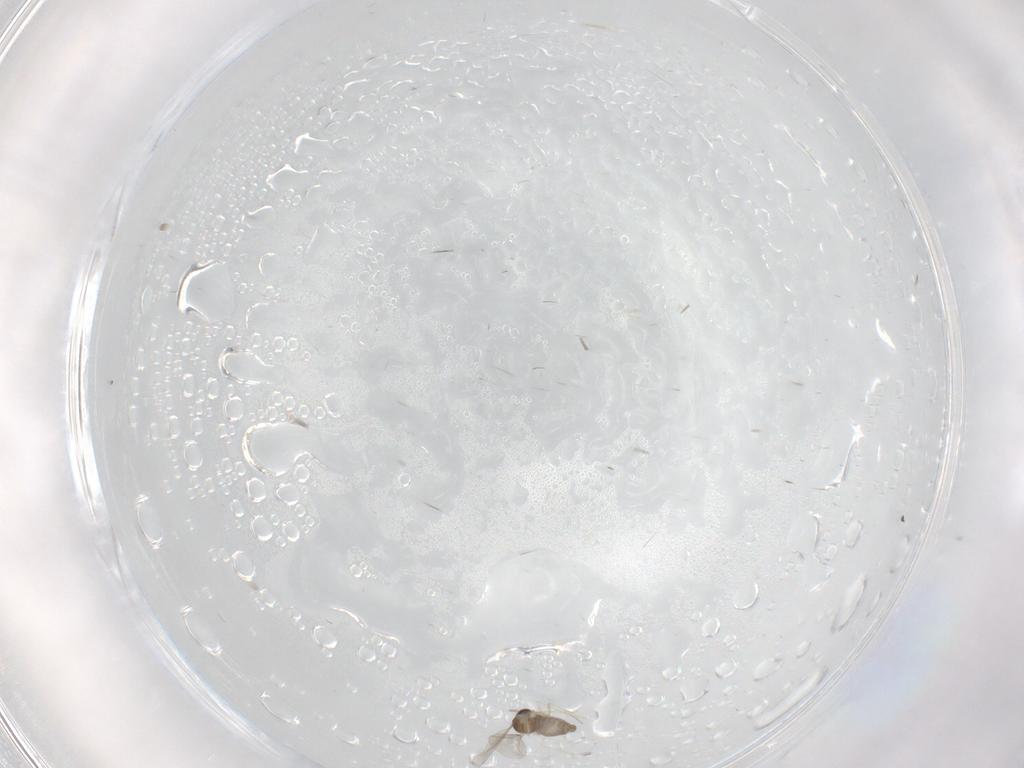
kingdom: Animalia
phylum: Arthropoda
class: Insecta
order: Diptera
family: Cecidomyiidae
